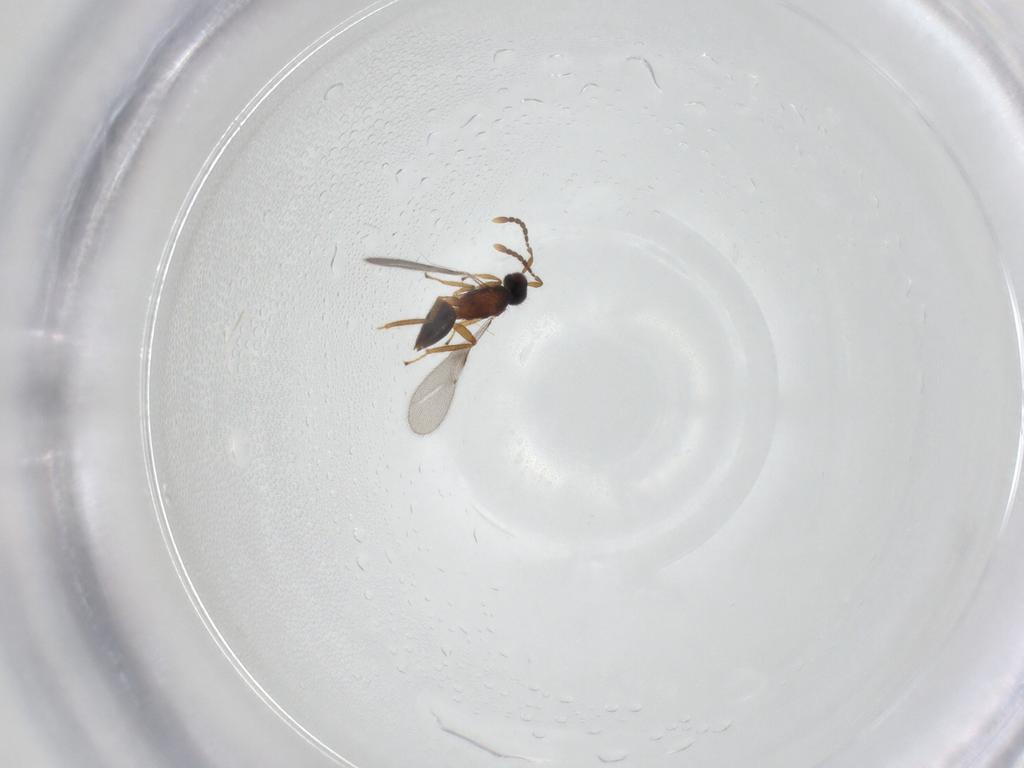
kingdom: Animalia
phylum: Arthropoda
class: Insecta
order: Hymenoptera
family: Mymaridae
